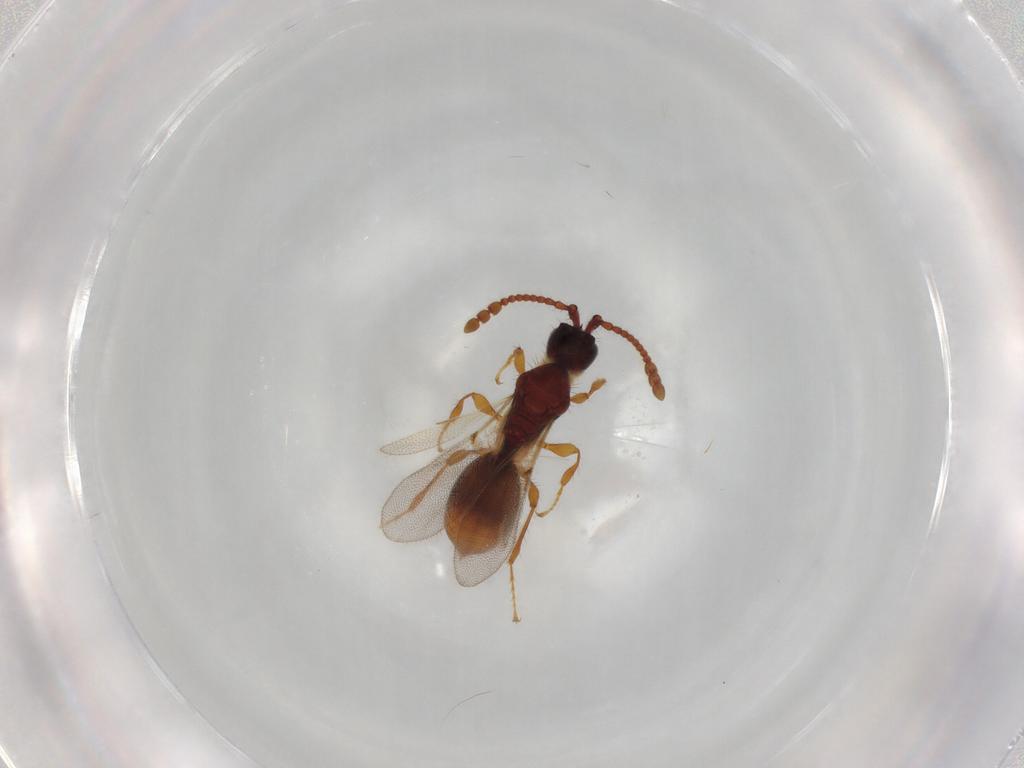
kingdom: Animalia
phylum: Arthropoda
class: Insecta
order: Hymenoptera
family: Diapriidae
